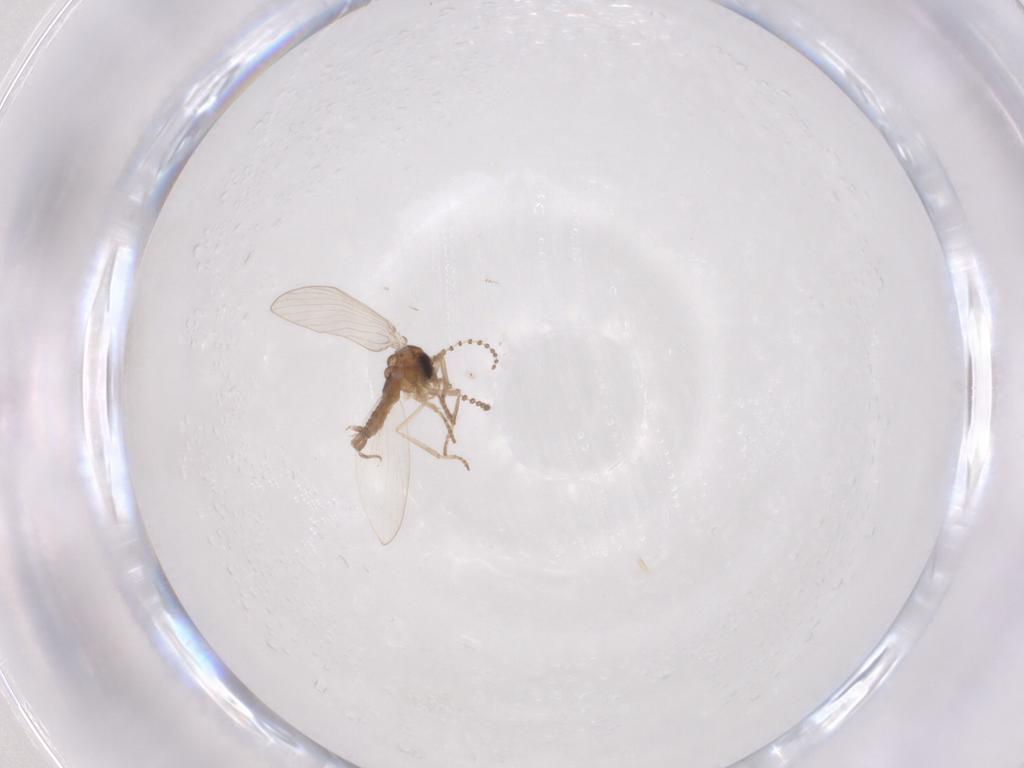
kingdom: Animalia
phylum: Arthropoda
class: Insecta
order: Diptera
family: Psychodidae
